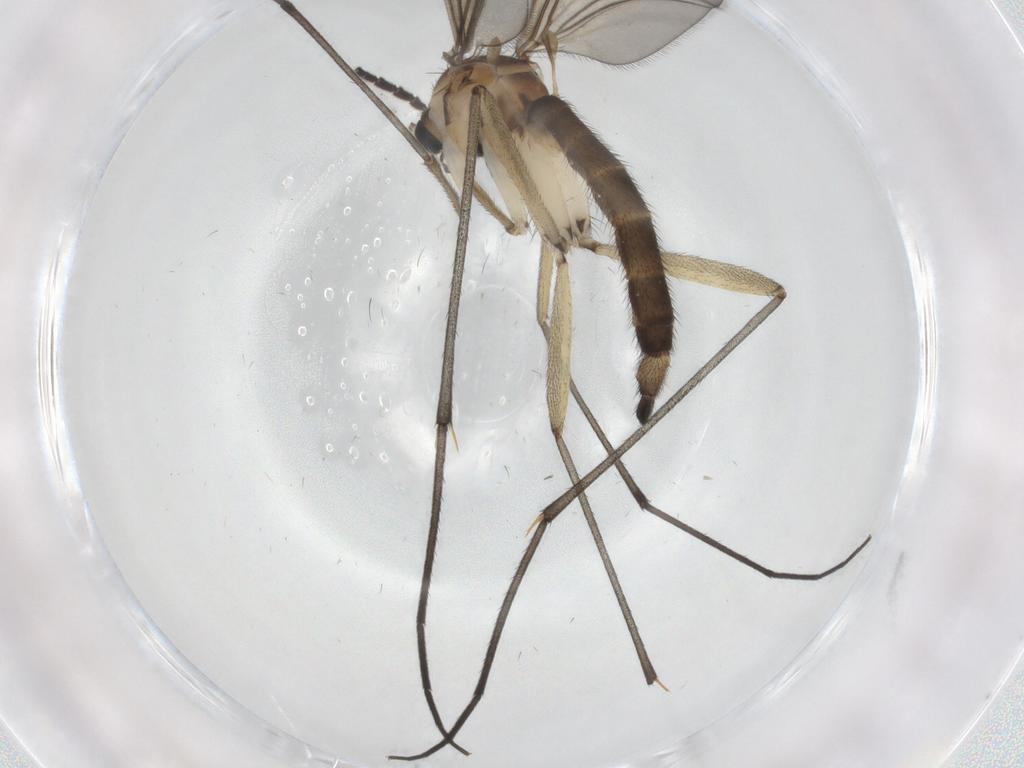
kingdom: Animalia
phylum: Arthropoda
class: Insecta
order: Diptera
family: Sciaridae
